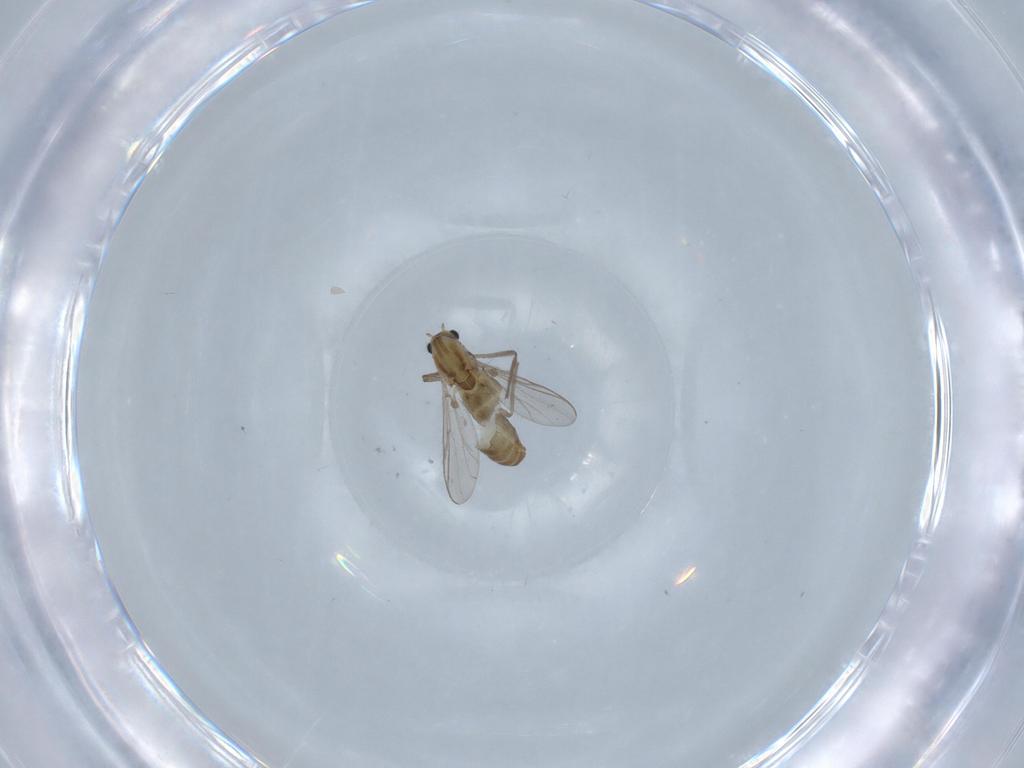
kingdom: Animalia
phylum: Arthropoda
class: Insecta
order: Diptera
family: Chironomidae
